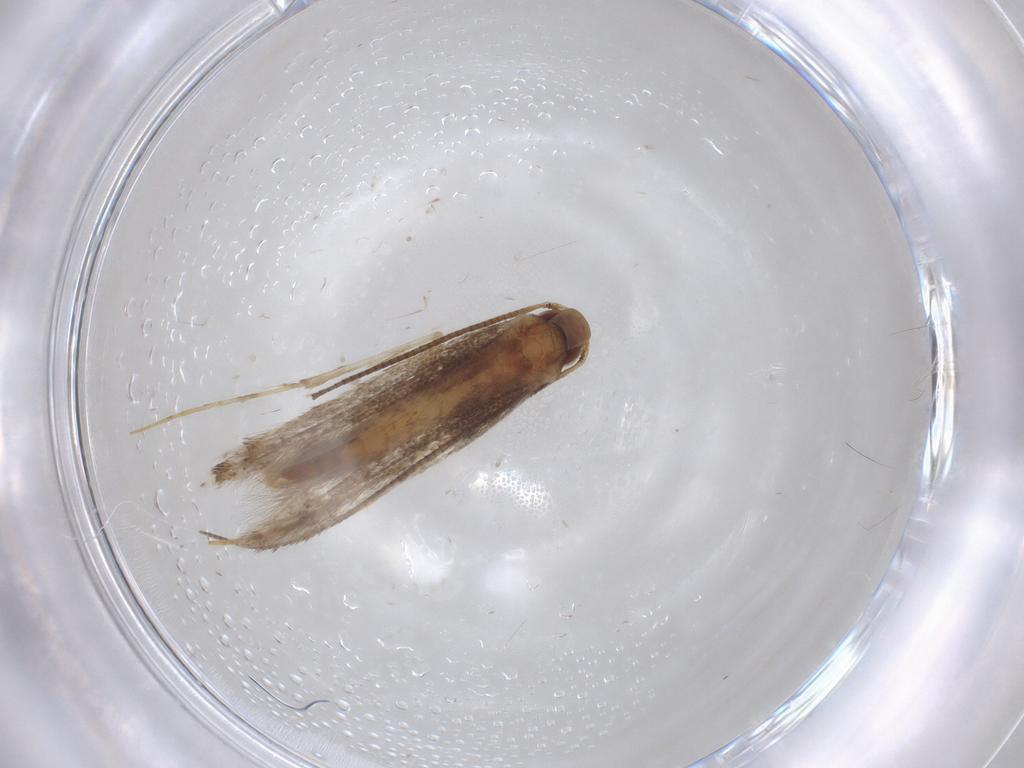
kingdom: Animalia
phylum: Arthropoda
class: Insecta
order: Lepidoptera
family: Gracillariidae
